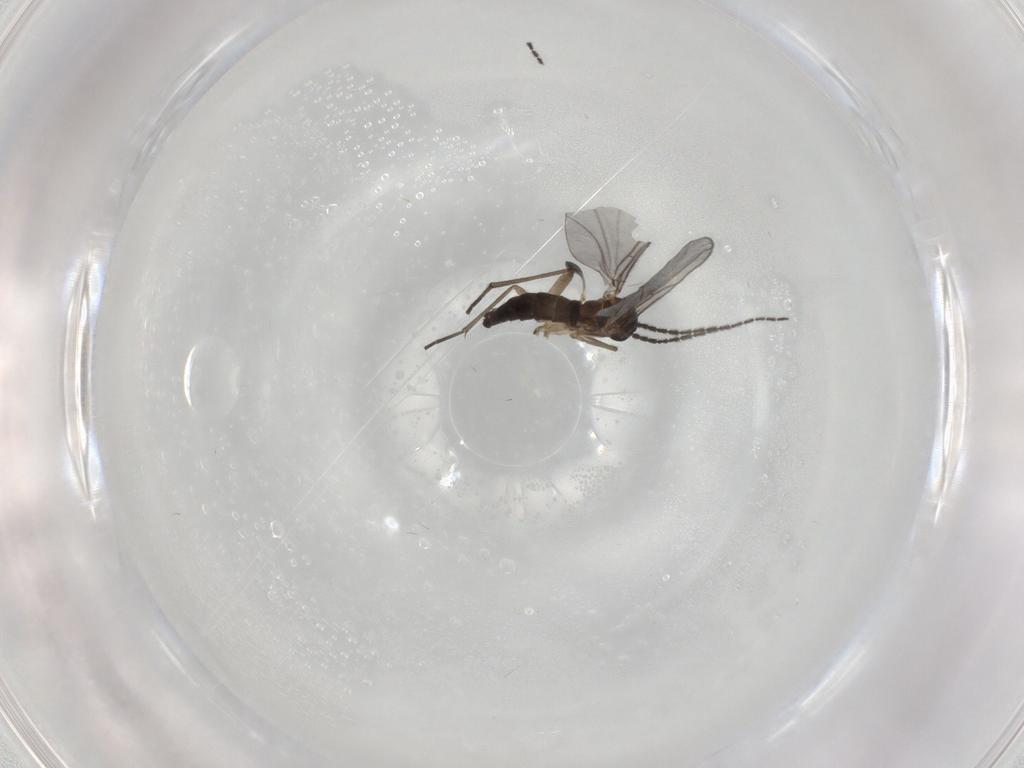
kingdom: Animalia
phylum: Arthropoda
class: Insecta
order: Diptera
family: Sciaridae
